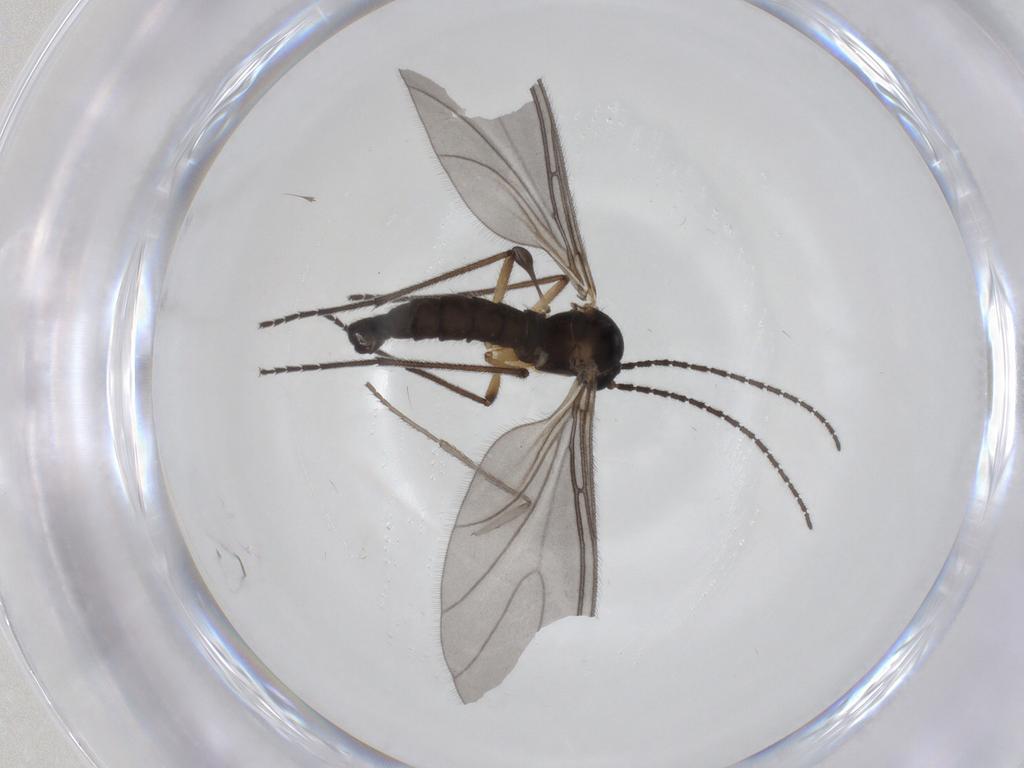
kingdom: Animalia
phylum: Arthropoda
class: Insecta
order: Diptera
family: Sciaridae
